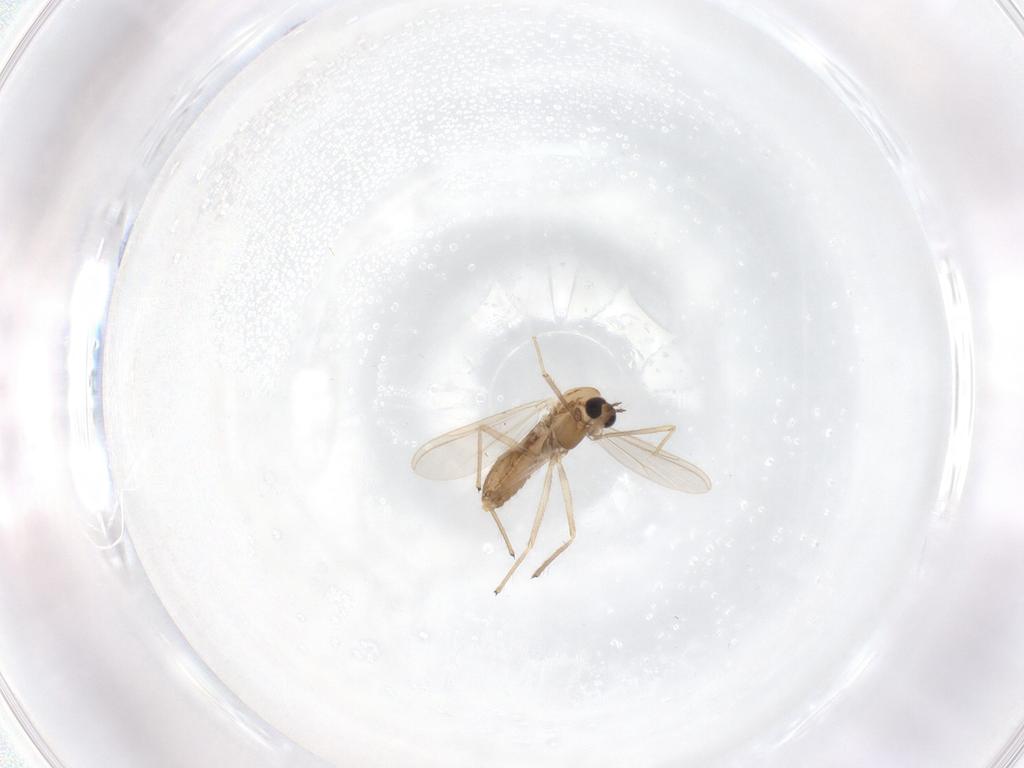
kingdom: Animalia
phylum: Arthropoda
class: Insecta
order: Diptera
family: Chironomidae
